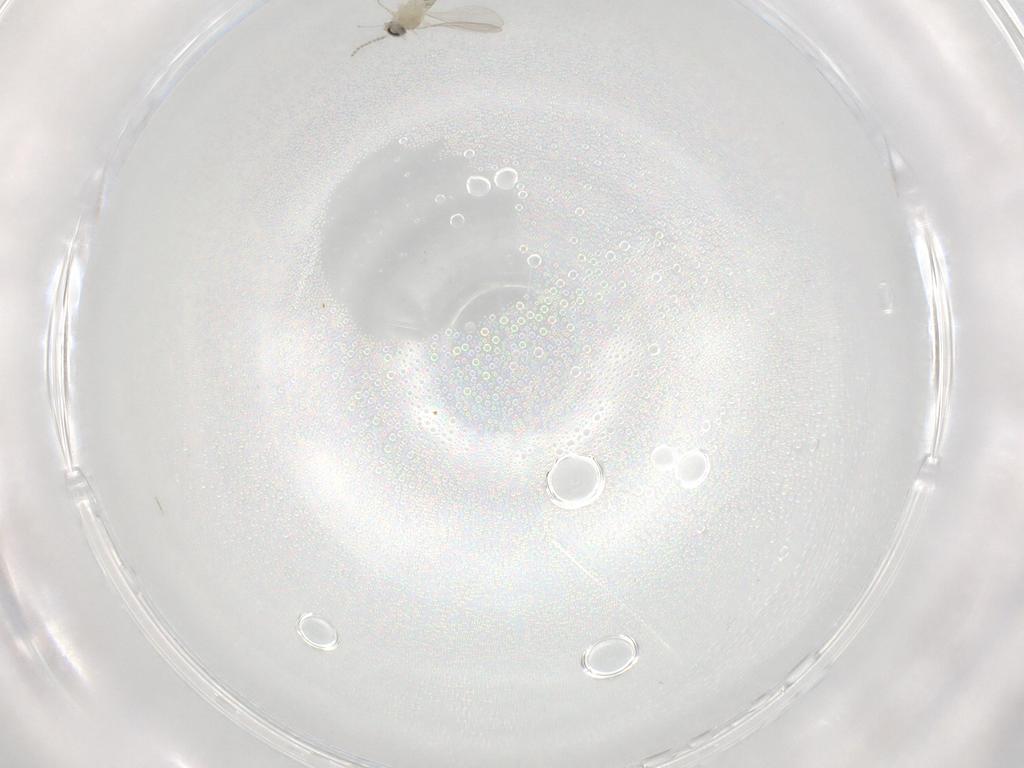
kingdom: Animalia
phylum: Arthropoda
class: Insecta
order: Diptera
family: Cecidomyiidae
